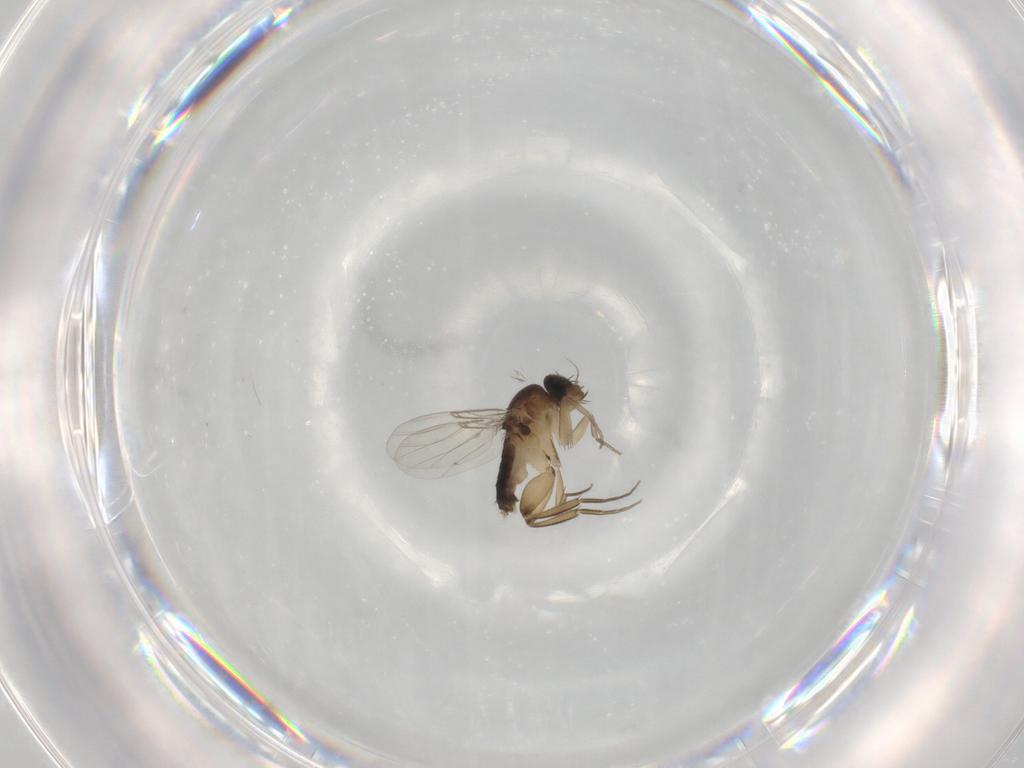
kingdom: Animalia
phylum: Arthropoda
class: Insecta
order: Diptera
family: Phoridae
